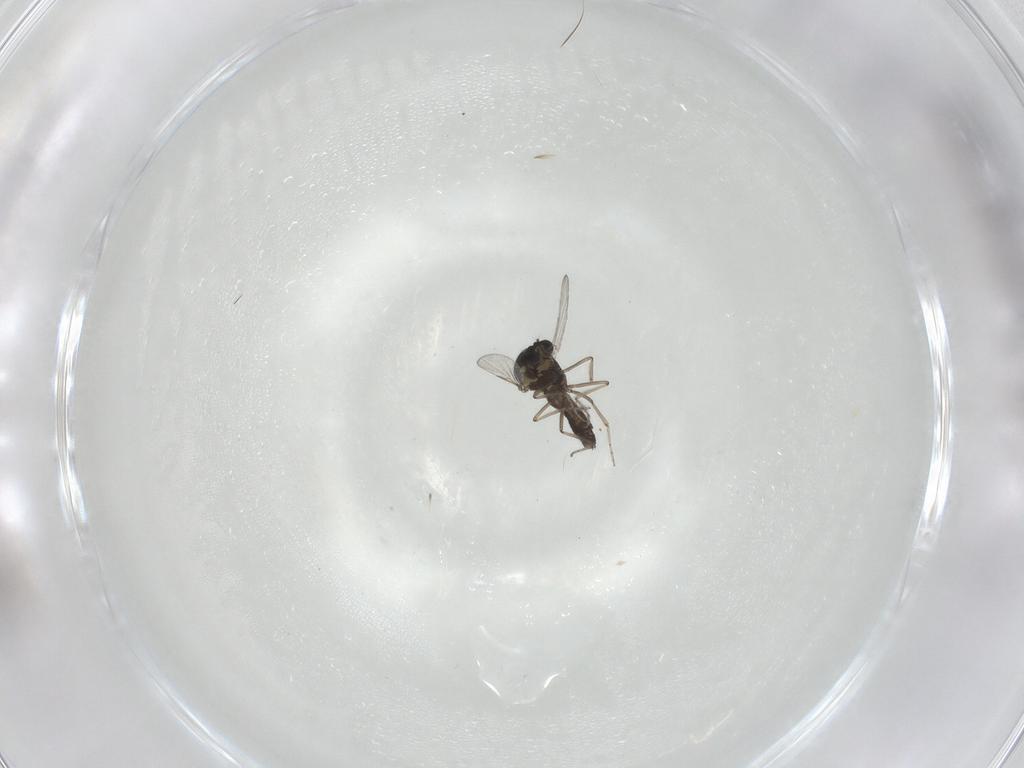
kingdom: Animalia
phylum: Arthropoda
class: Insecta
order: Diptera
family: Ceratopogonidae
